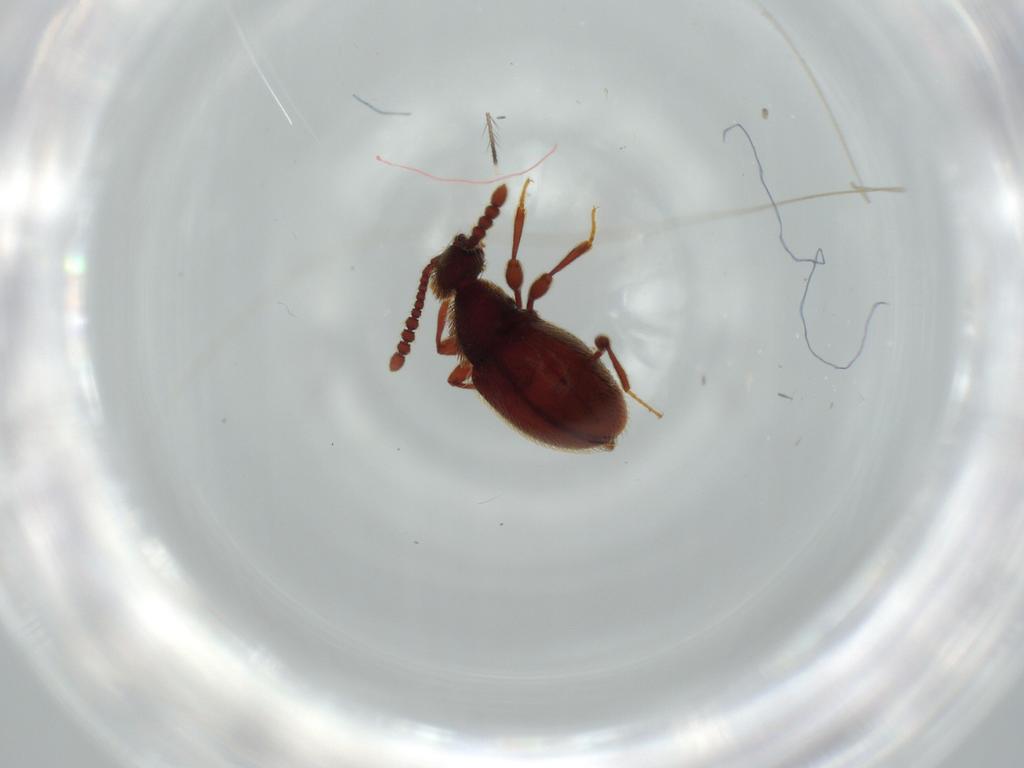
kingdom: Animalia
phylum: Arthropoda
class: Insecta
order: Coleoptera
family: Staphylinidae
